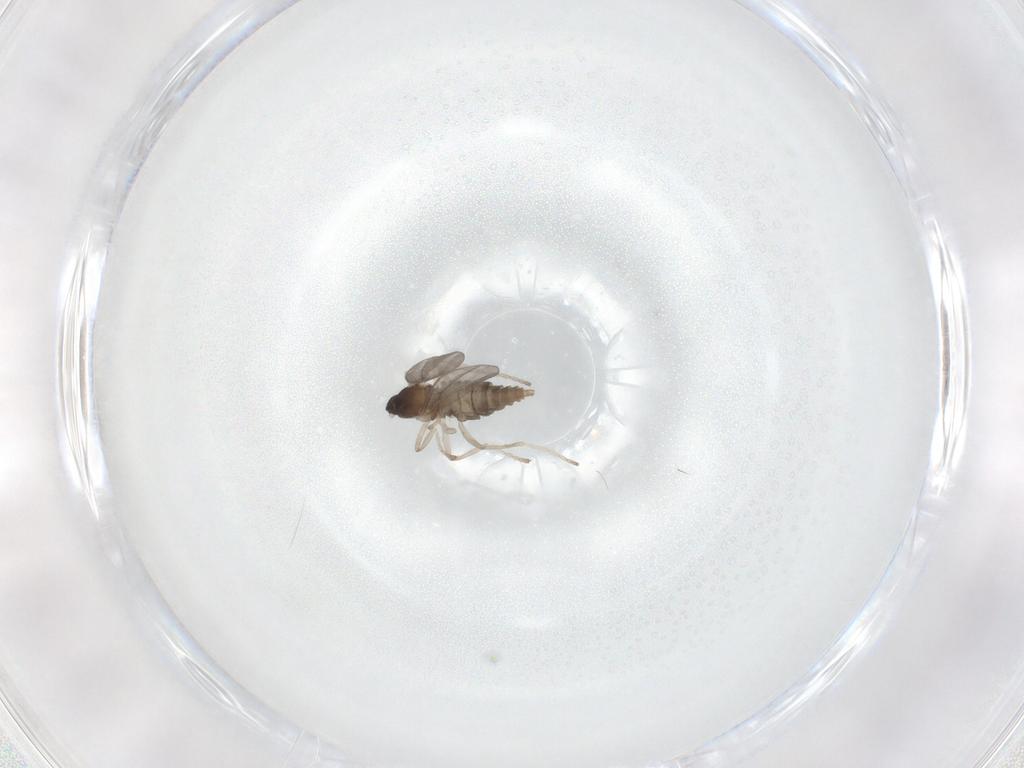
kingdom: Animalia
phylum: Arthropoda
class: Insecta
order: Diptera
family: Cecidomyiidae
